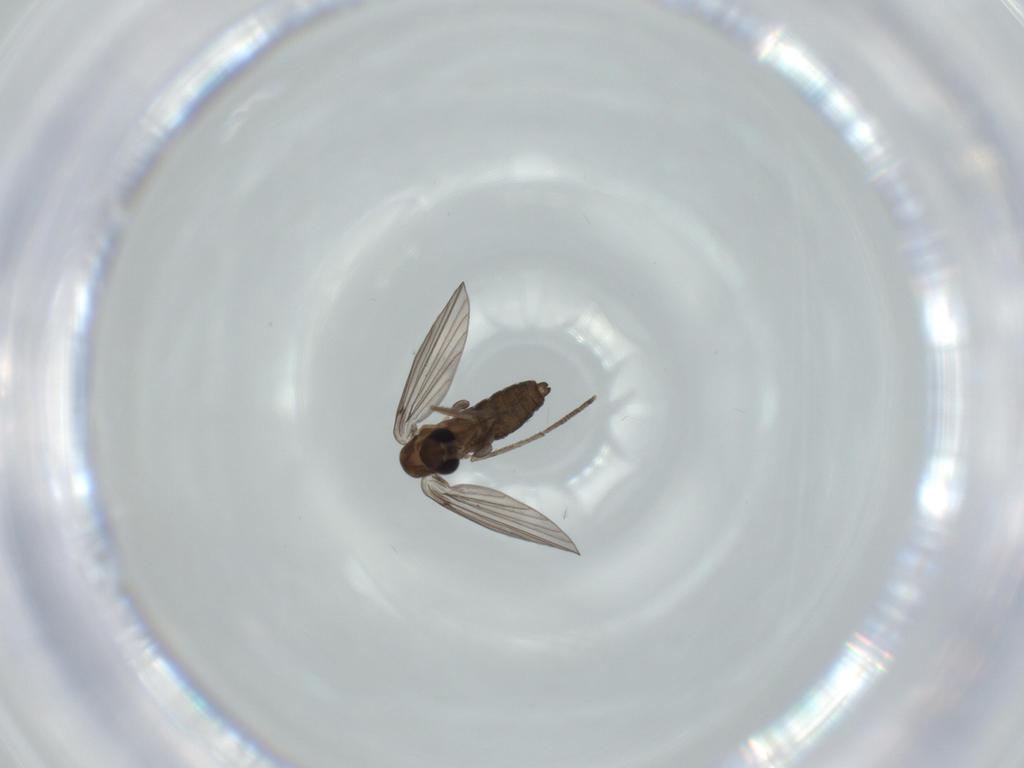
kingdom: Animalia
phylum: Arthropoda
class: Insecta
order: Diptera
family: Psychodidae
